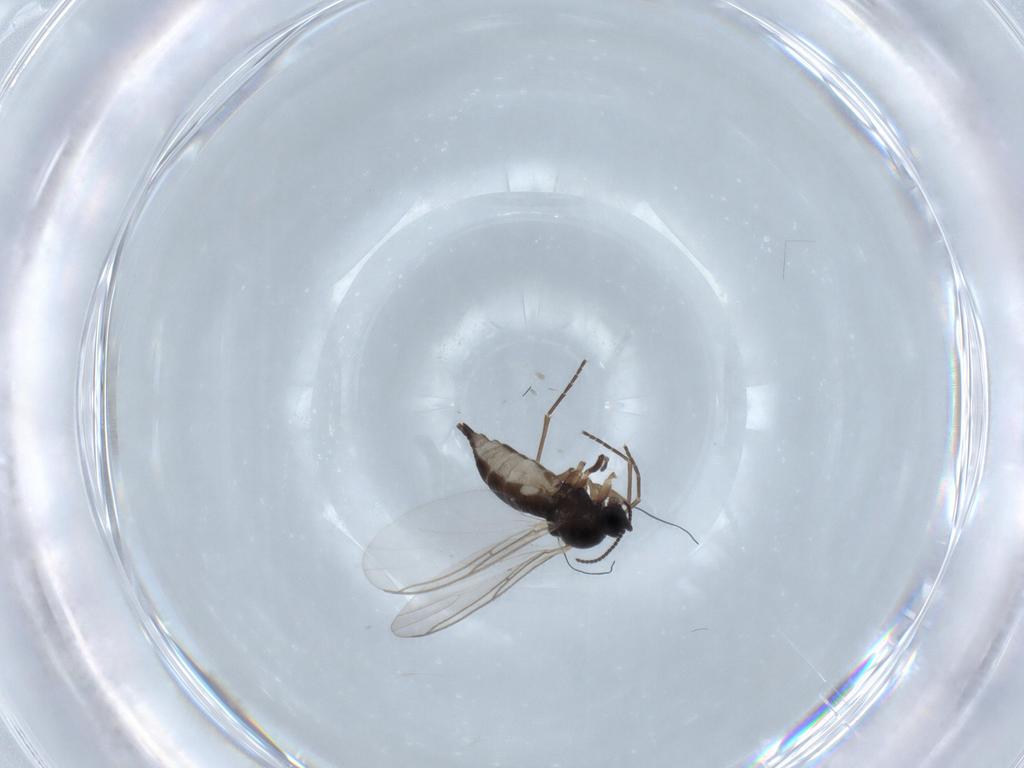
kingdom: Animalia
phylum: Arthropoda
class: Insecta
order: Diptera
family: Sciaridae
